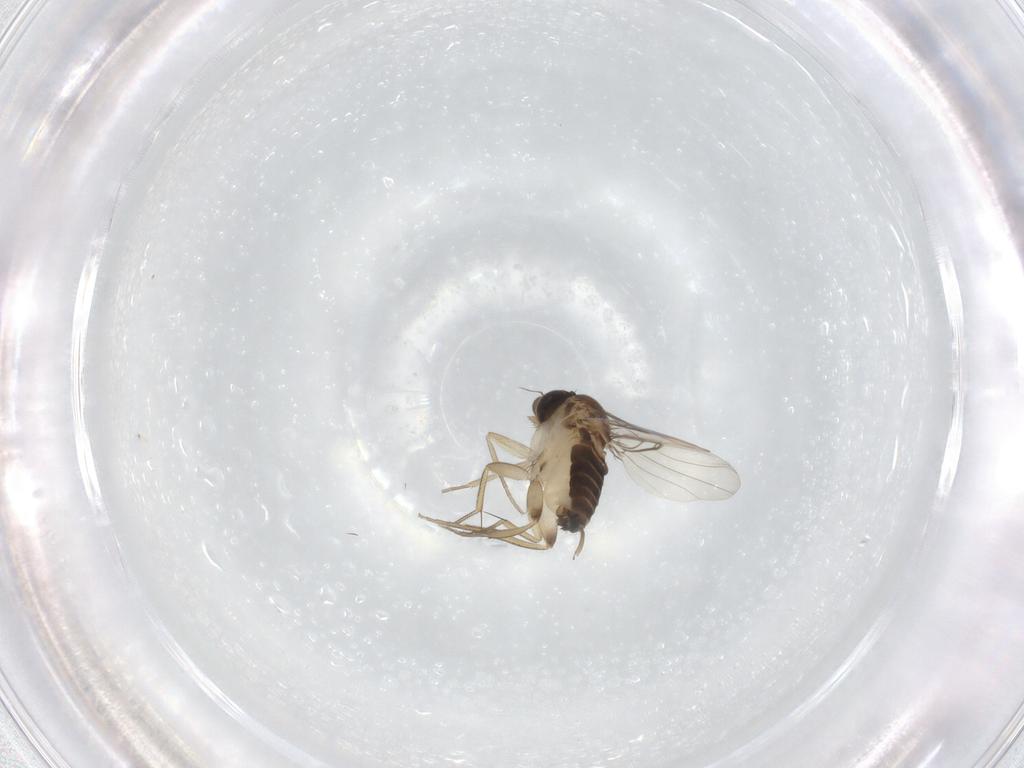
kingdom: Animalia
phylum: Arthropoda
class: Insecta
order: Diptera
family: Phoridae
